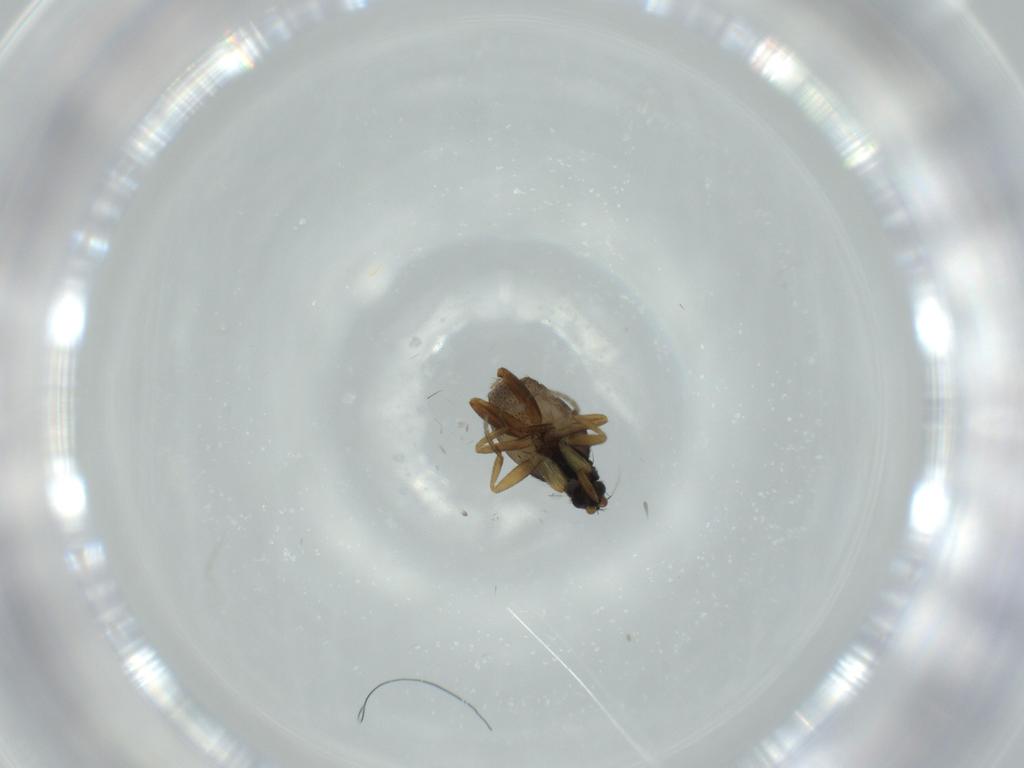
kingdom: Animalia
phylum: Arthropoda
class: Insecta
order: Diptera
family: Phoridae
